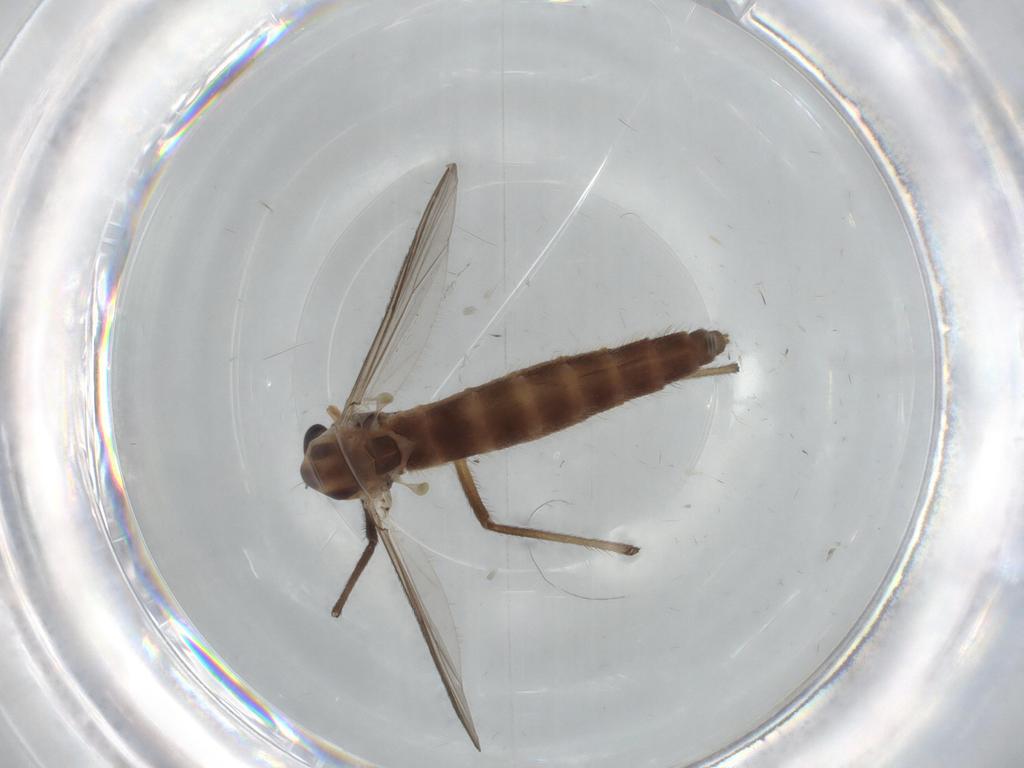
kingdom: Animalia
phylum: Arthropoda
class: Insecta
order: Diptera
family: Chironomidae
